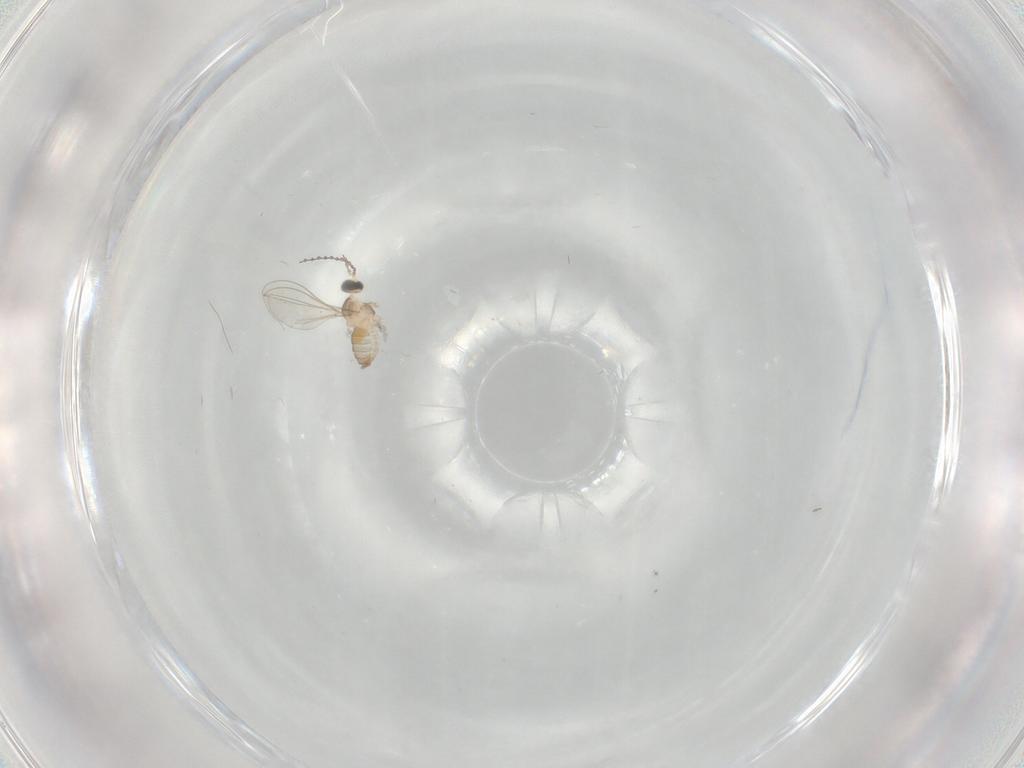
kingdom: Animalia
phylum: Arthropoda
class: Insecta
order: Diptera
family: Cecidomyiidae
